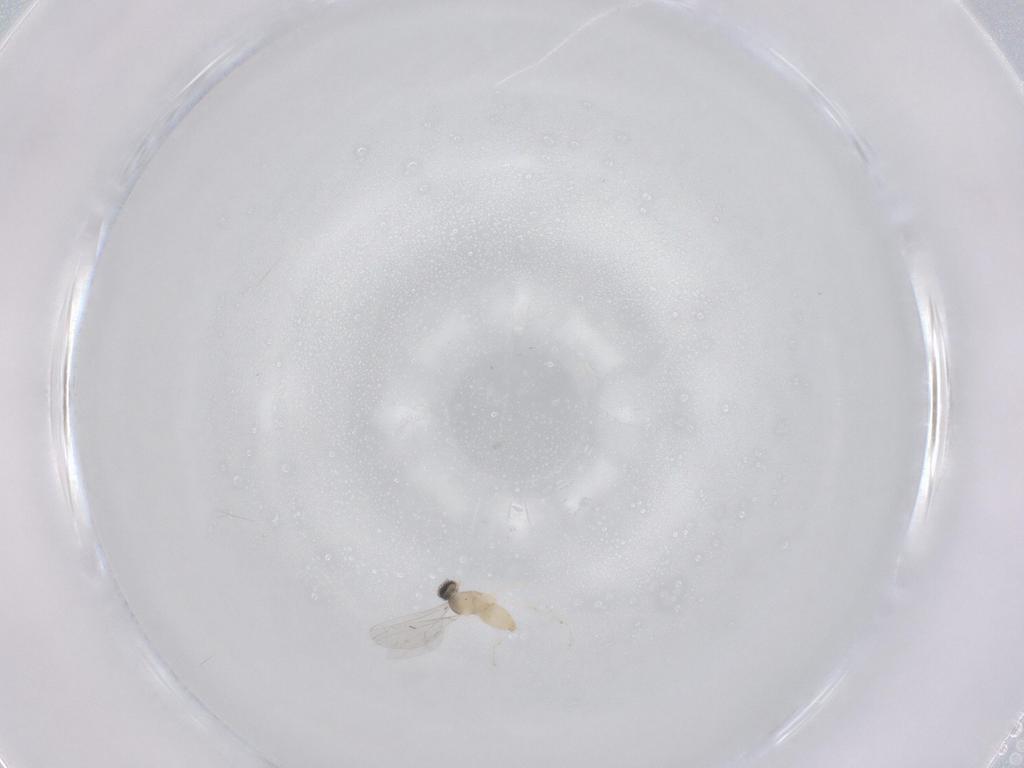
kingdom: Animalia
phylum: Arthropoda
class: Insecta
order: Diptera
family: Cecidomyiidae
